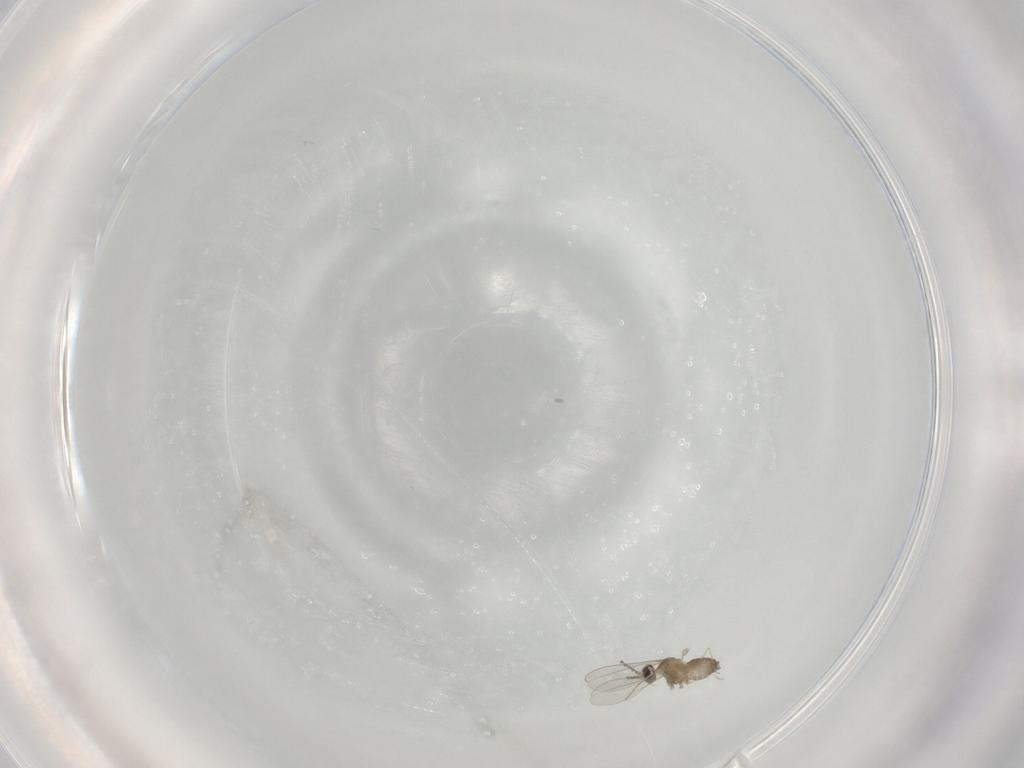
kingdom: Animalia
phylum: Arthropoda
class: Insecta
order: Diptera
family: Cecidomyiidae
